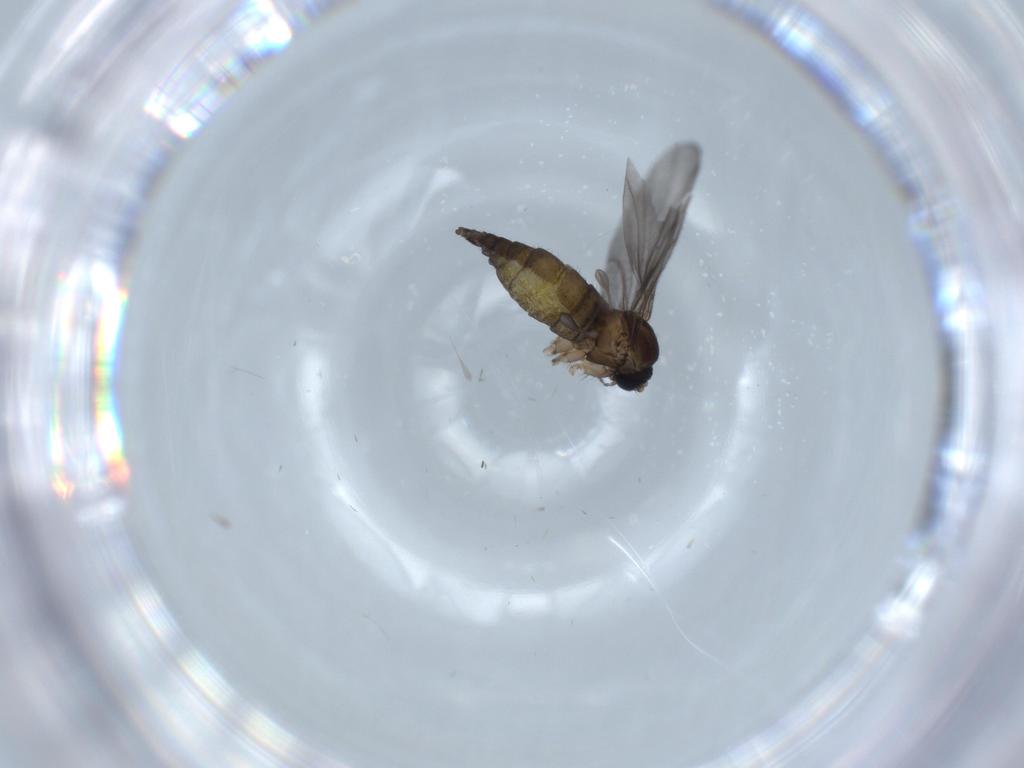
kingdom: Animalia
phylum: Arthropoda
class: Insecta
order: Diptera
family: Sciaridae
